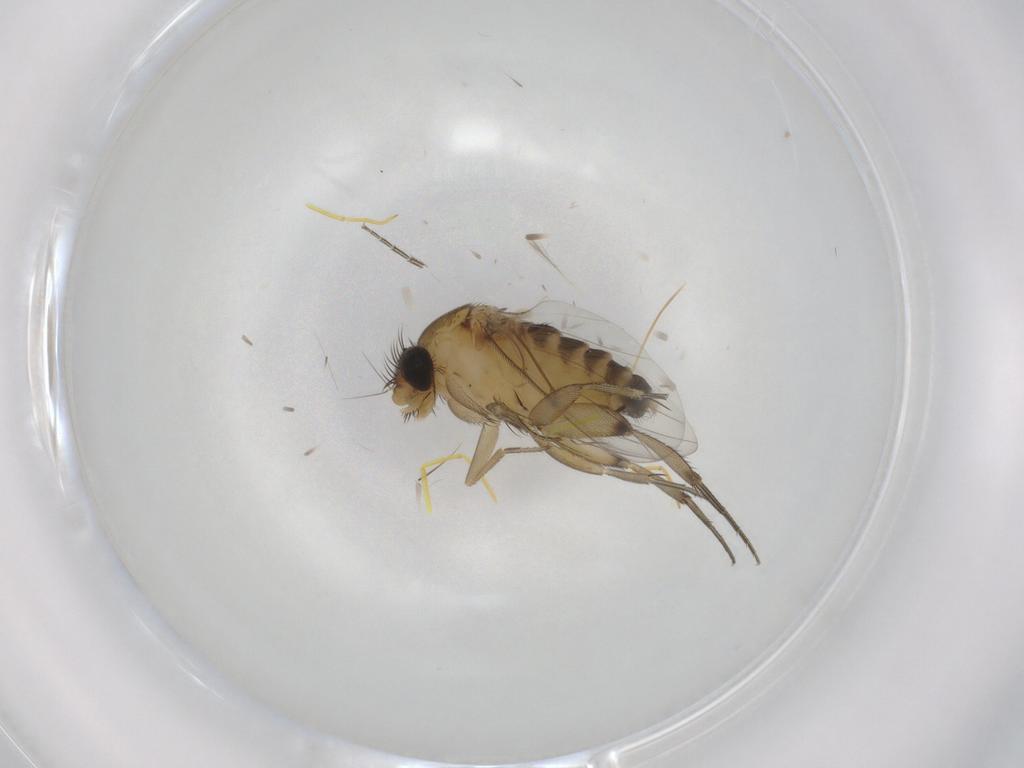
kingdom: Animalia
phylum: Arthropoda
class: Insecta
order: Diptera
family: Phoridae
